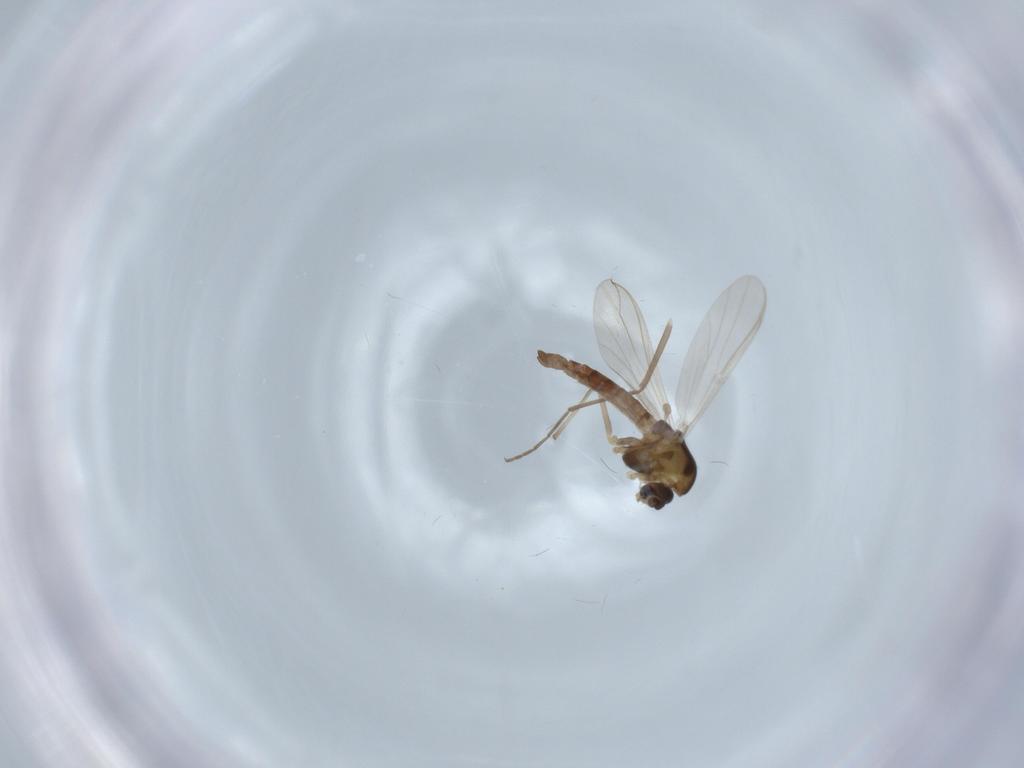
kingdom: Animalia
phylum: Arthropoda
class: Insecta
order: Diptera
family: Chironomidae
